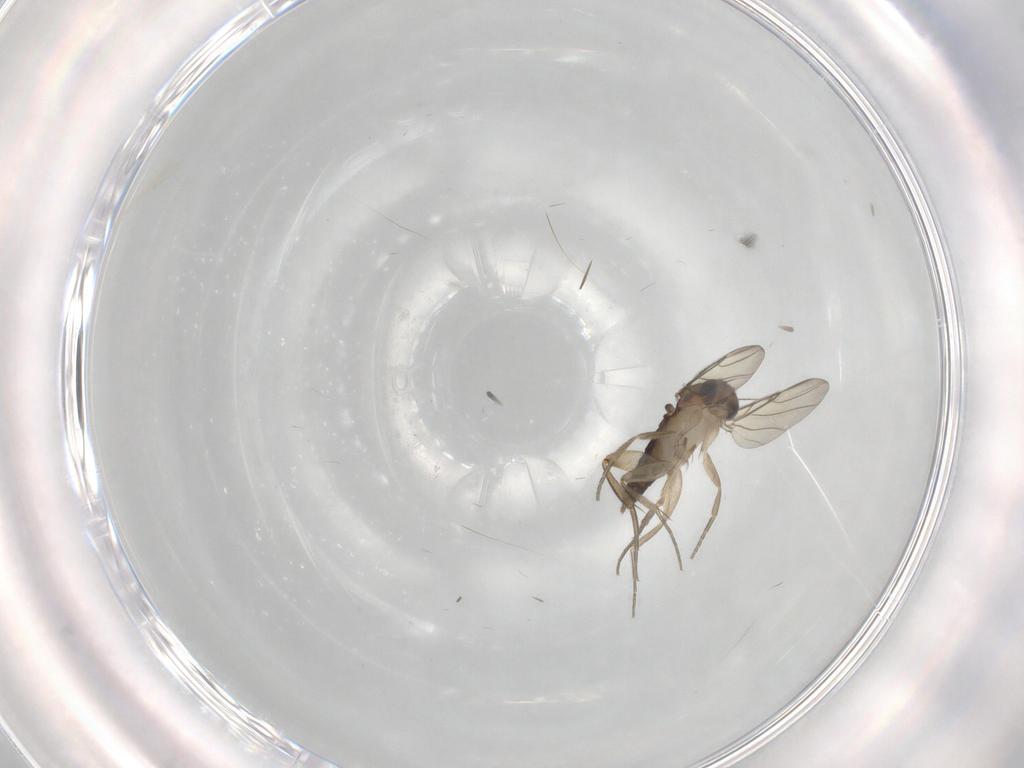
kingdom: Animalia
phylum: Arthropoda
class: Insecta
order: Diptera
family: Phoridae
